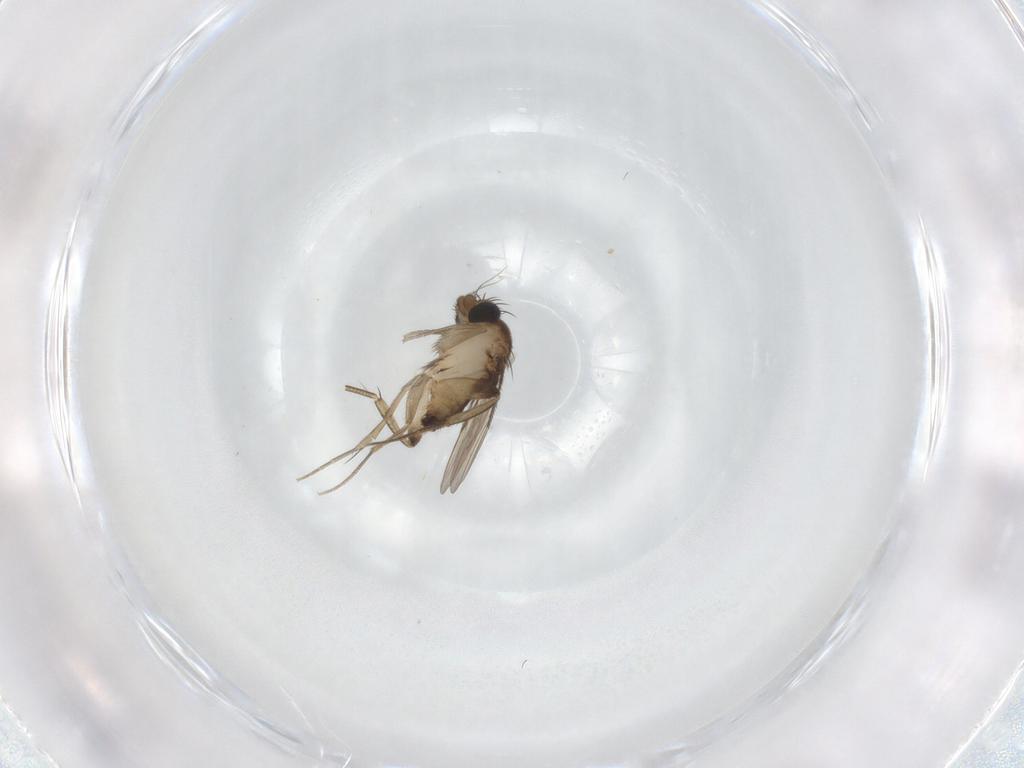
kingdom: Animalia
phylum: Arthropoda
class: Insecta
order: Diptera
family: Phoridae
